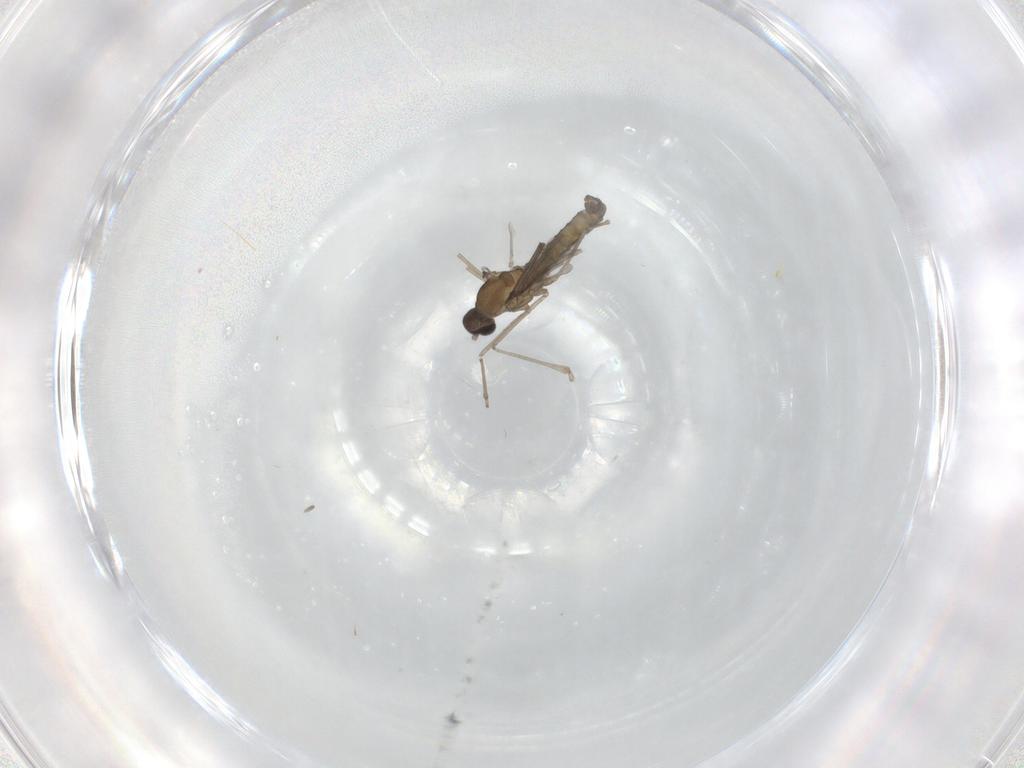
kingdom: Animalia
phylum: Arthropoda
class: Insecta
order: Diptera
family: Cecidomyiidae
